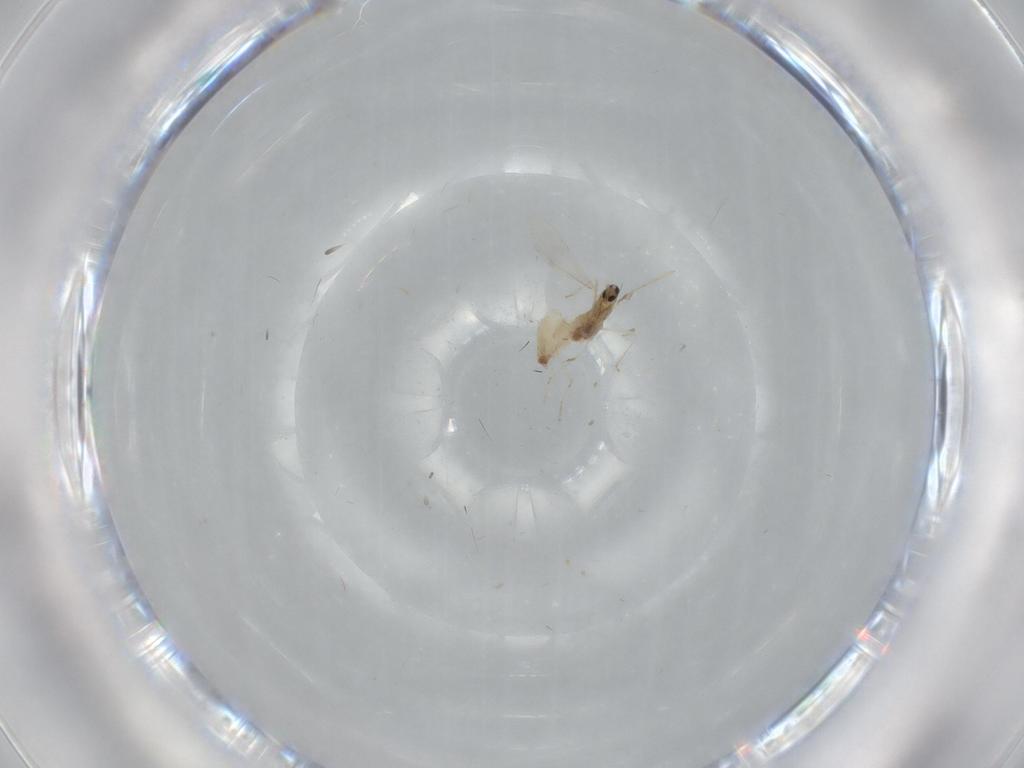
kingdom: Animalia
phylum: Arthropoda
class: Insecta
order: Diptera
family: Cecidomyiidae
